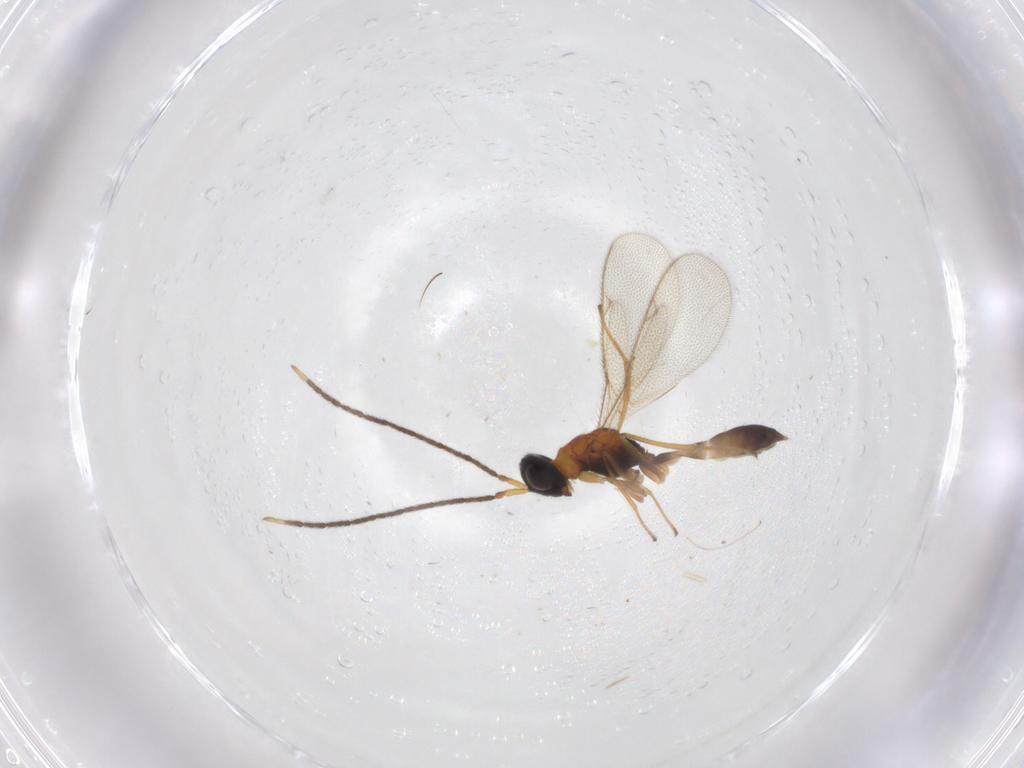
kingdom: Animalia
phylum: Arthropoda
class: Insecta
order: Hymenoptera
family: Pteromalidae
